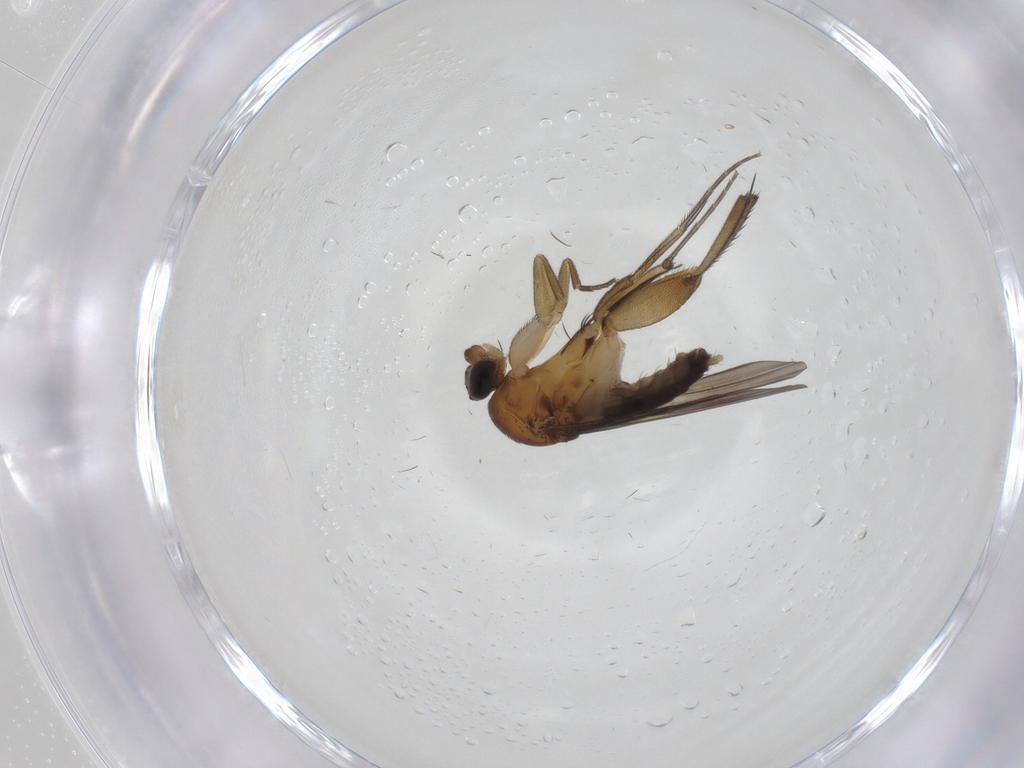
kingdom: Animalia
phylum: Arthropoda
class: Insecta
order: Diptera
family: Phoridae
